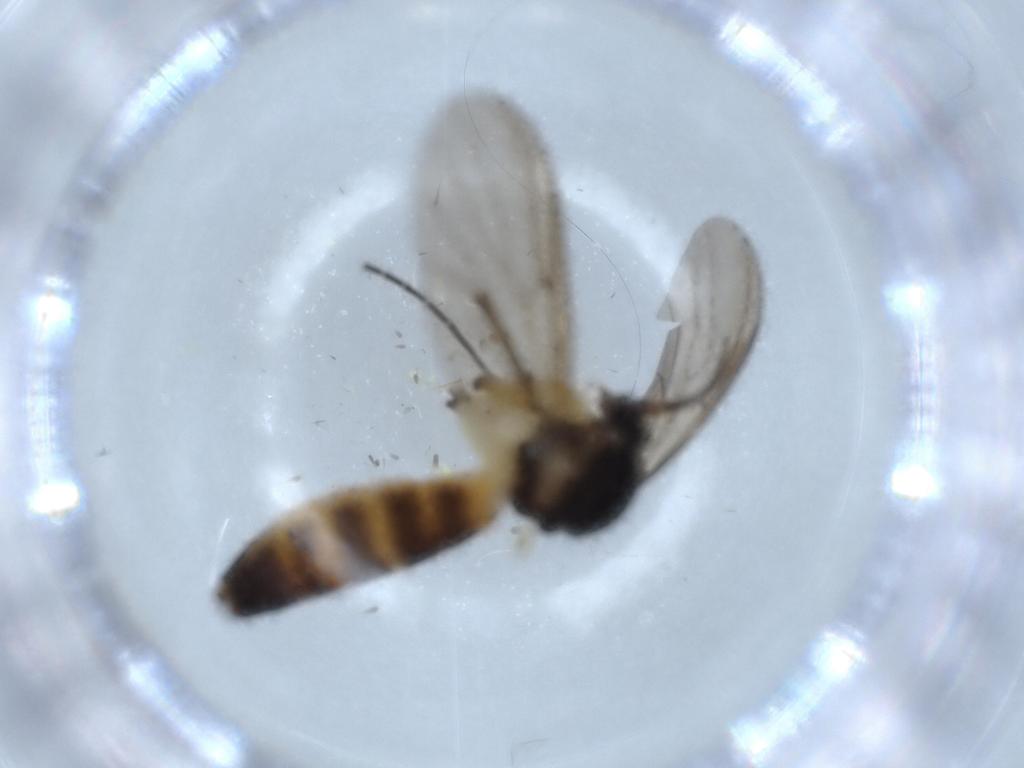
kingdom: Animalia
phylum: Arthropoda
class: Insecta
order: Diptera
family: Mycetophilidae
